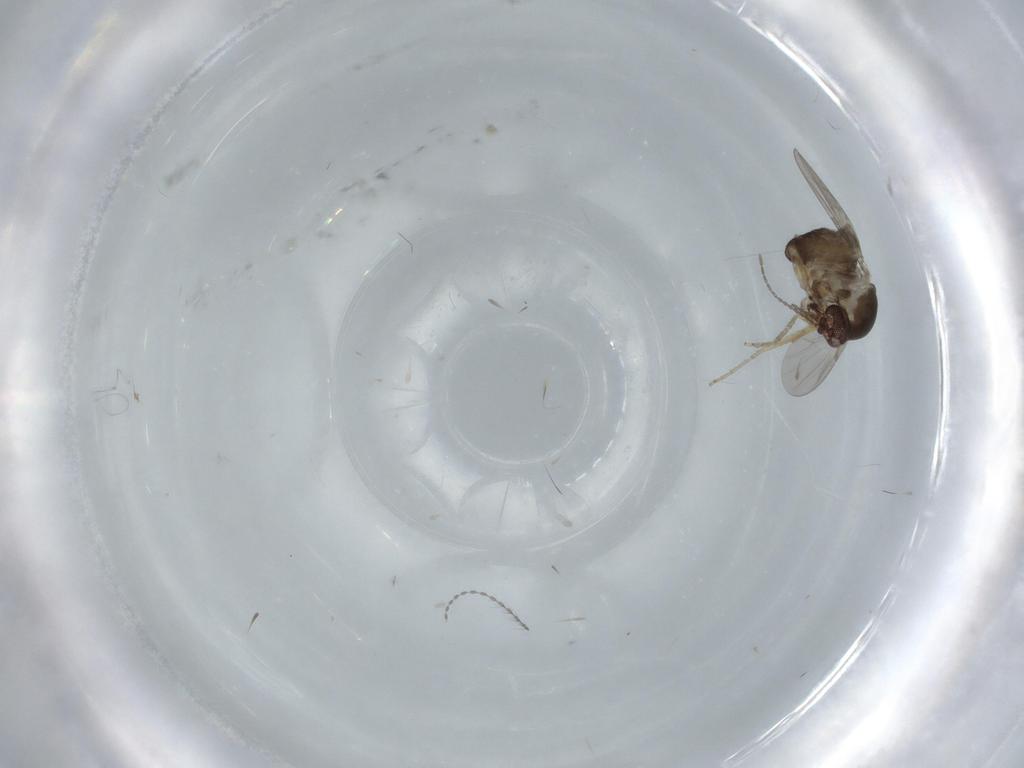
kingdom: Animalia
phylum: Arthropoda
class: Insecta
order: Diptera
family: Ceratopogonidae
